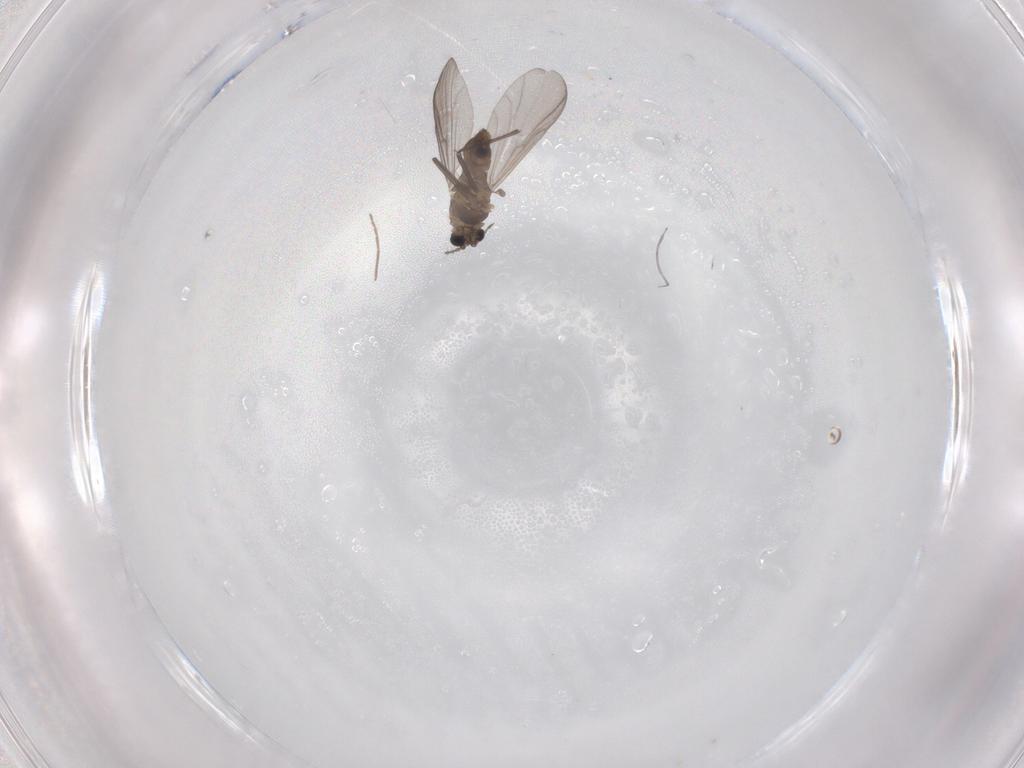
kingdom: Animalia
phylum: Arthropoda
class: Insecta
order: Diptera
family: Chironomidae
